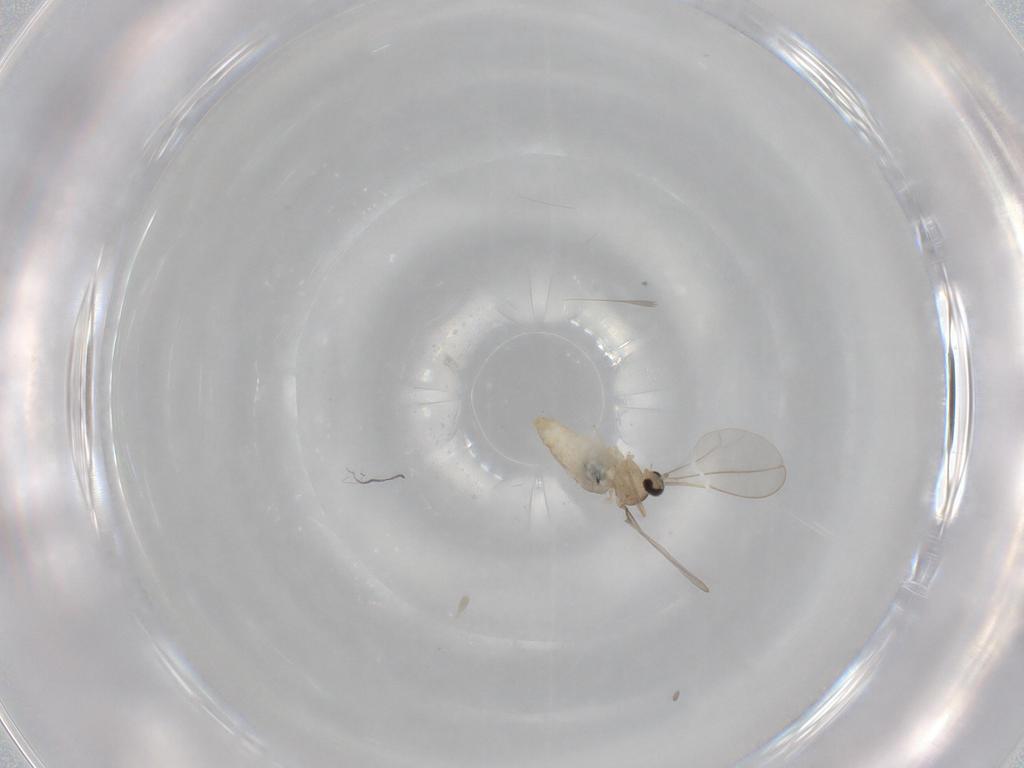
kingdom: Animalia
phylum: Arthropoda
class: Insecta
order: Diptera
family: Cecidomyiidae
